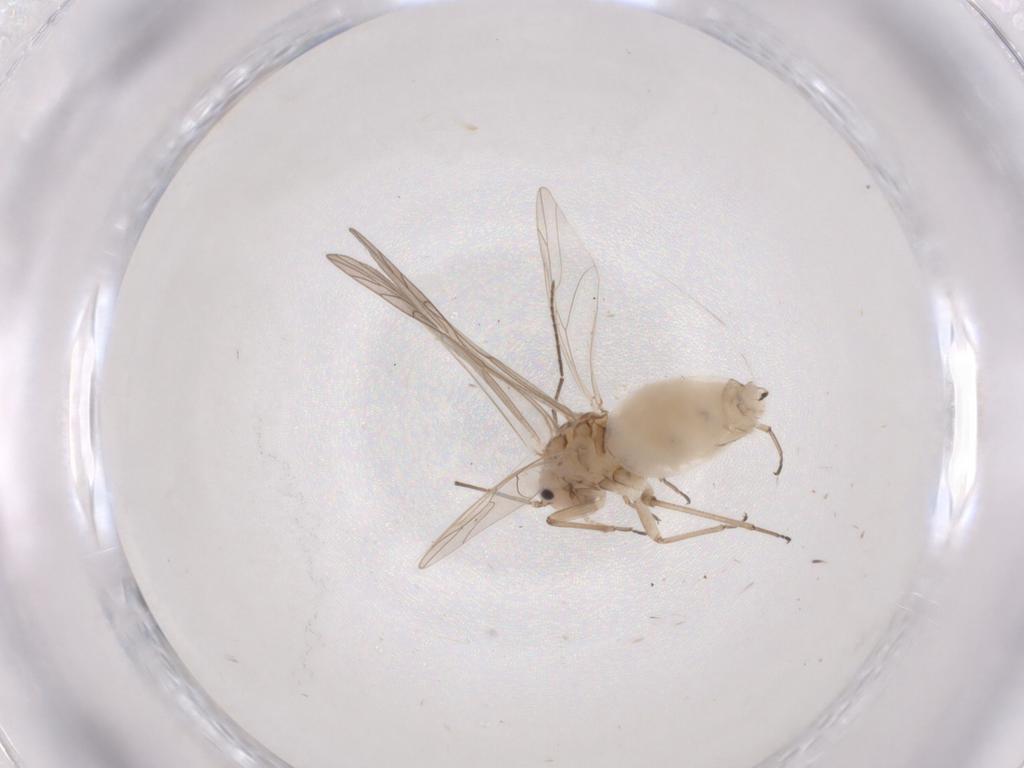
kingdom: Animalia
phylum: Arthropoda
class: Insecta
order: Psocodea
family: Elipsocidae
